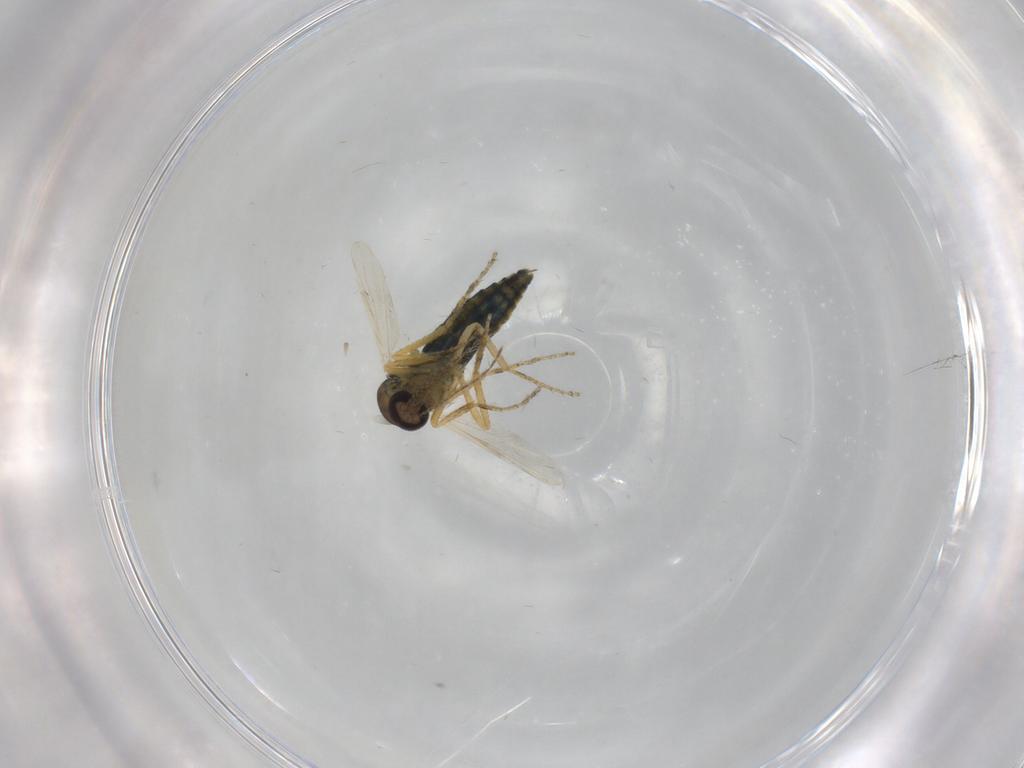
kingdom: Animalia
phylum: Arthropoda
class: Insecta
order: Diptera
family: Ceratopogonidae
